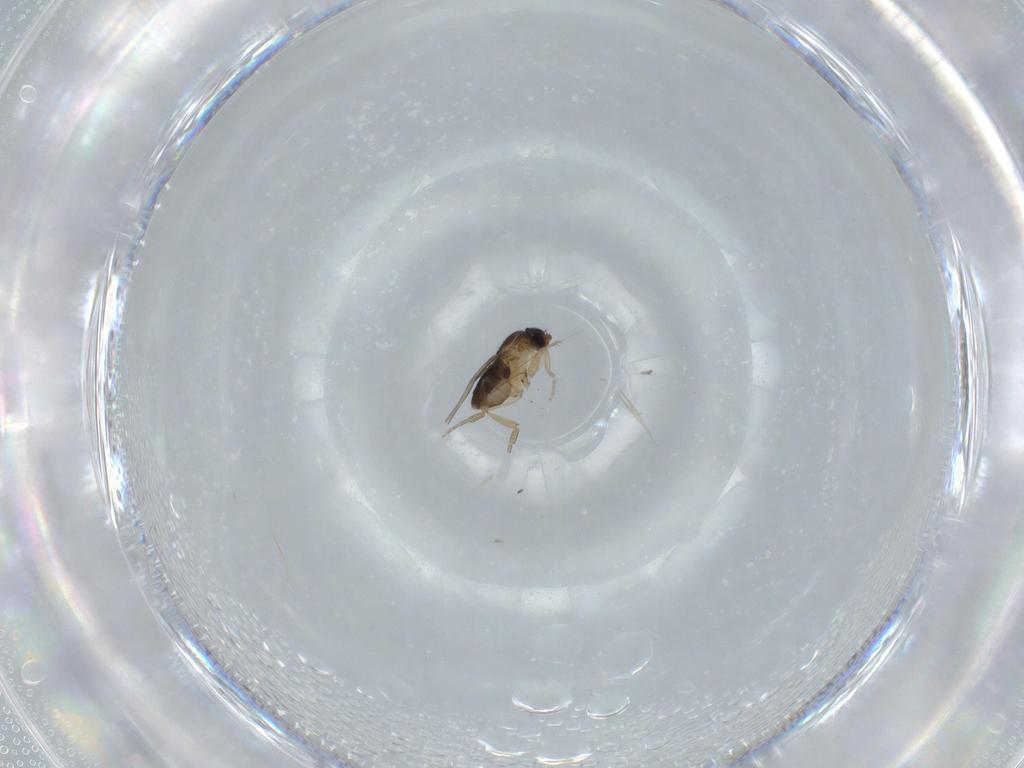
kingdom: Animalia
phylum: Arthropoda
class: Insecta
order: Diptera
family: Phoridae
